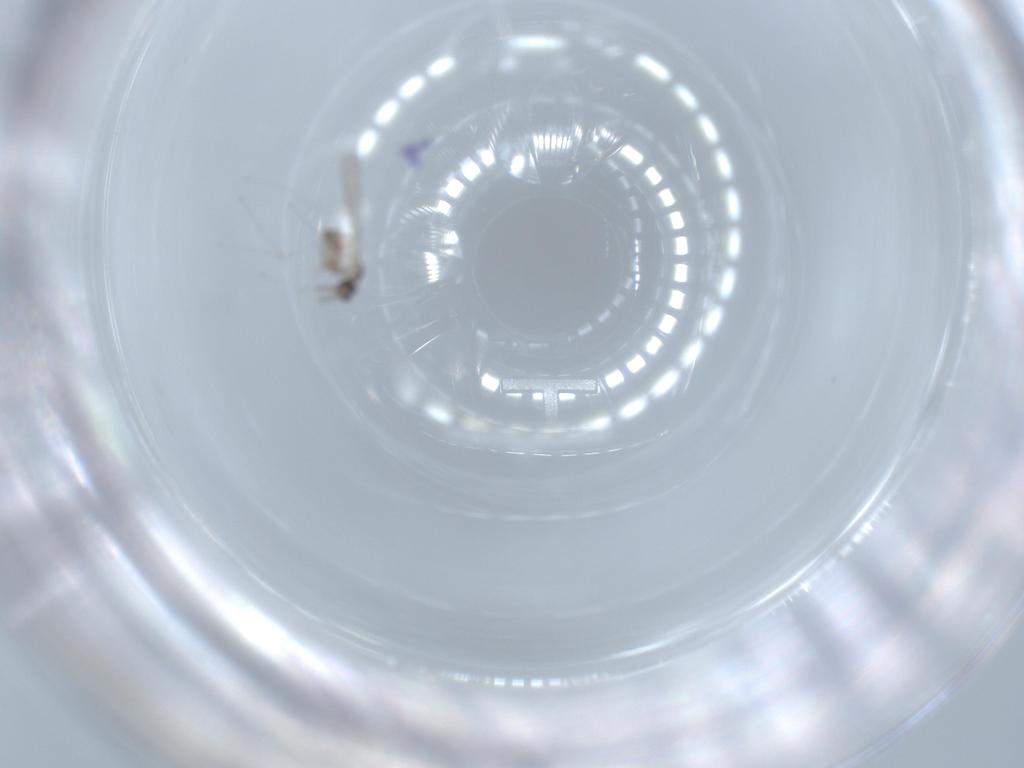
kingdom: Animalia
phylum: Arthropoda
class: Insecta
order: Diptera
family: Cecidomyiidae
